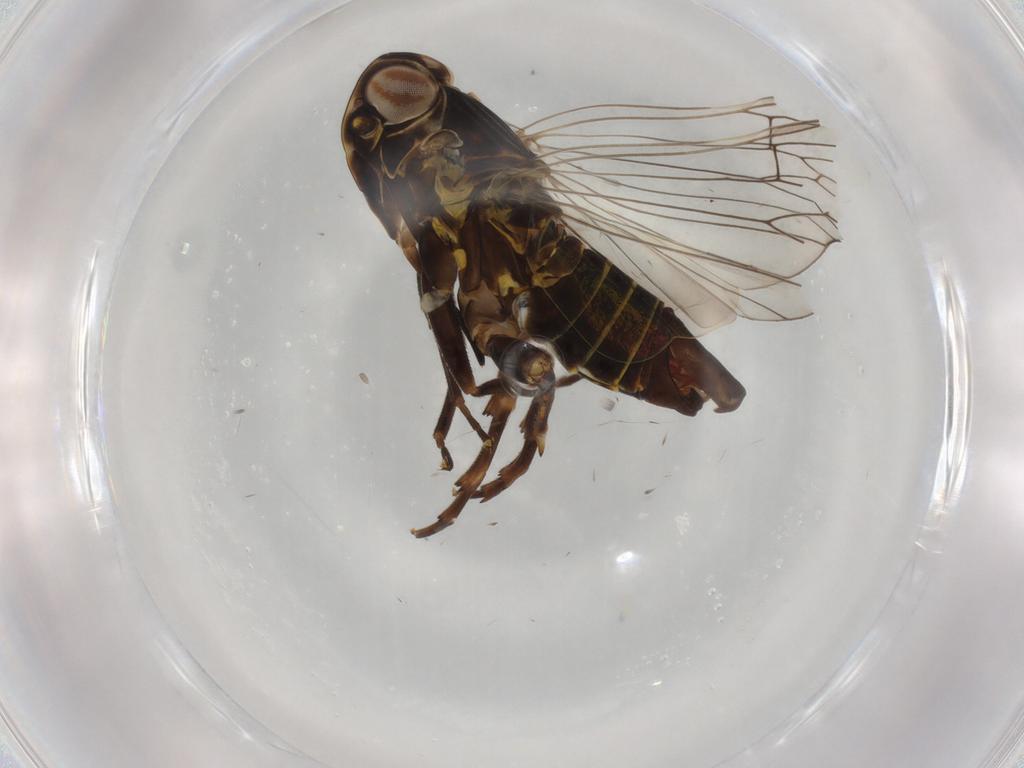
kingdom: Animalia
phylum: Arthropoda
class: Insecta
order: Hemiptera
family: Cixiidae
